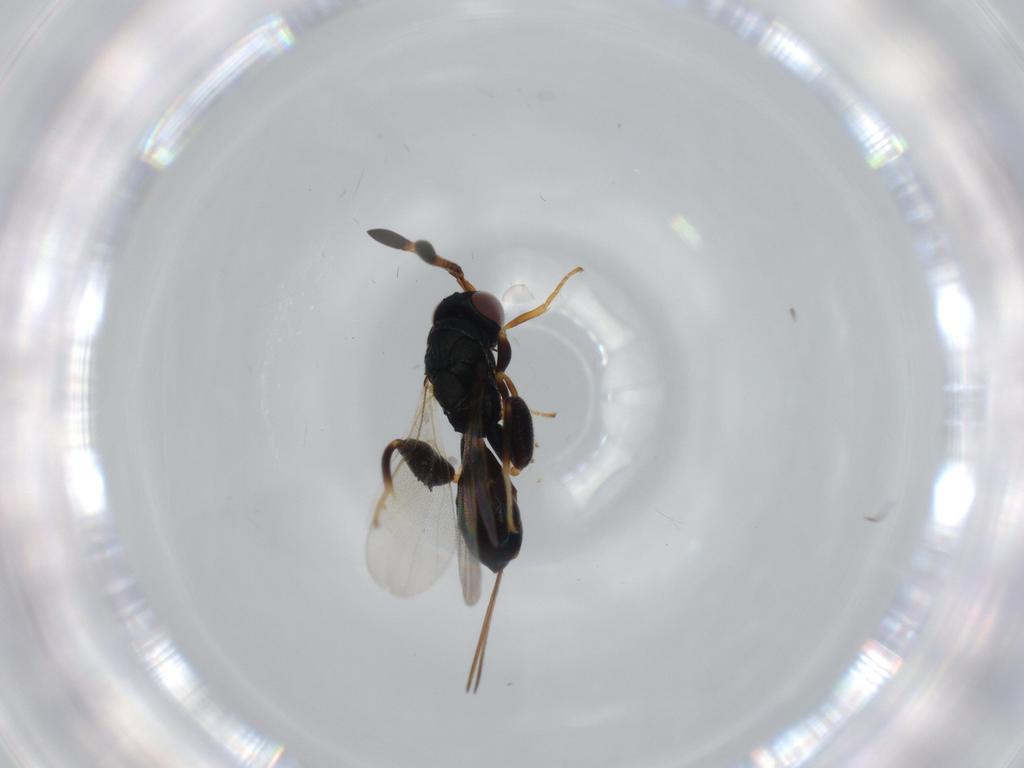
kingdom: Animalia
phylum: Arthropoda
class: Insecta
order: Hymenoptera
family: Torymidae
